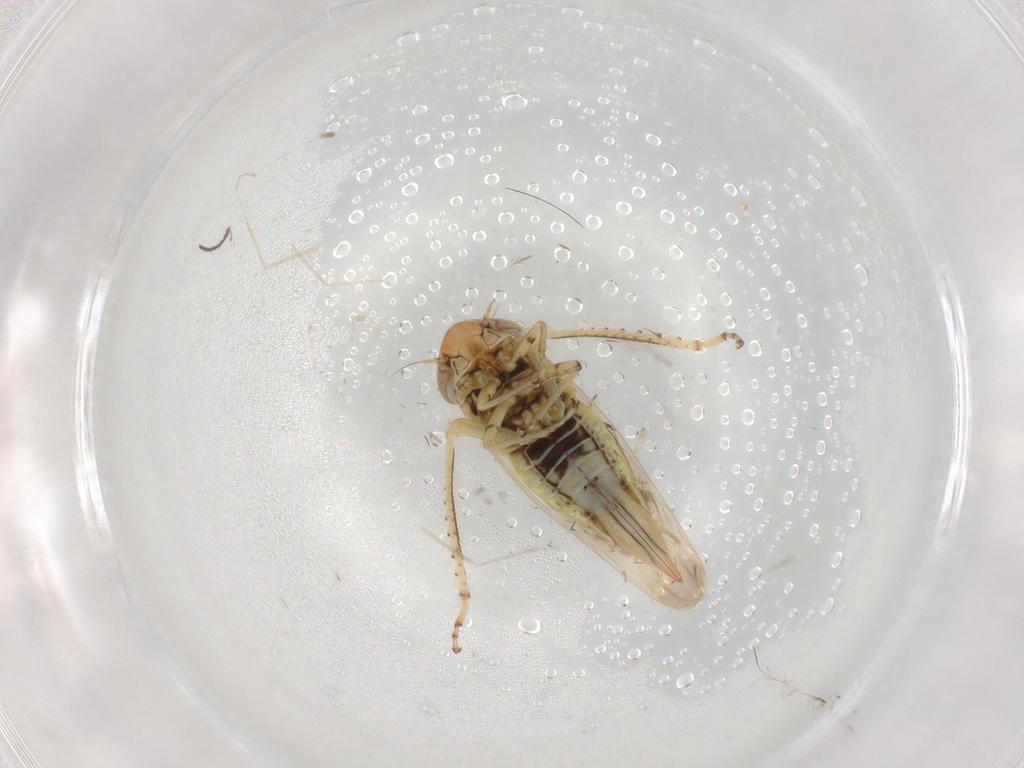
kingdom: Animalia
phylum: Arthropoda
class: Insecta
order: Hemiptera
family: Cicadellidae
